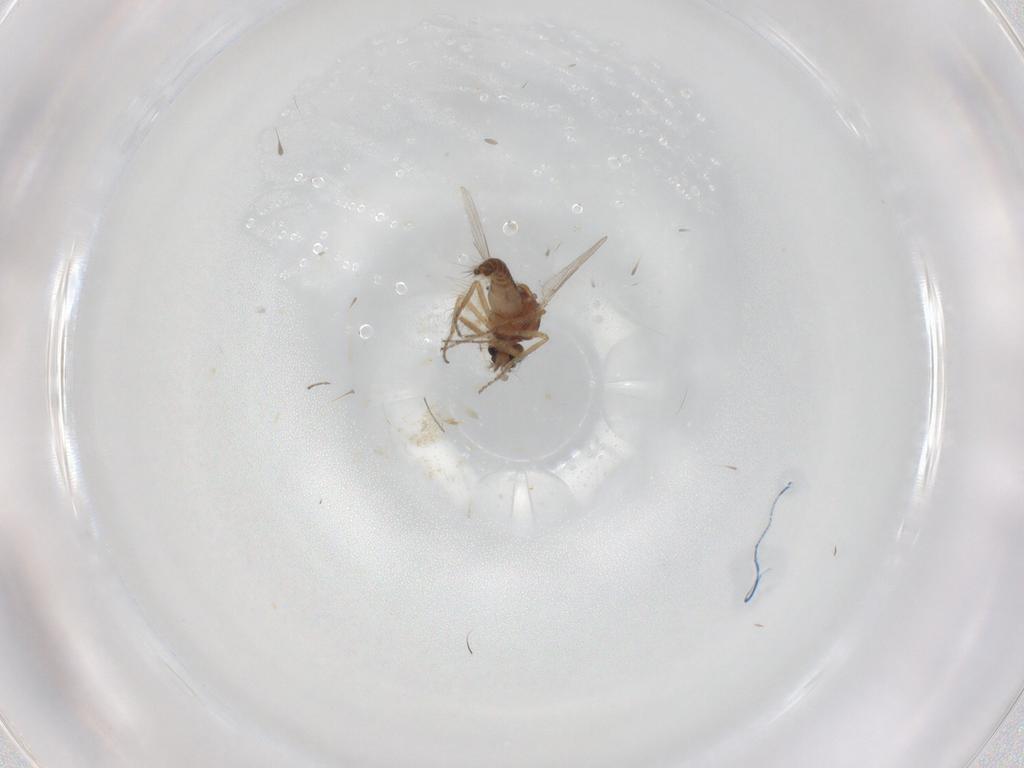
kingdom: Animalia
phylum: Arthropoda
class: Insecta
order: Diptera
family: Ceratopogonidae
